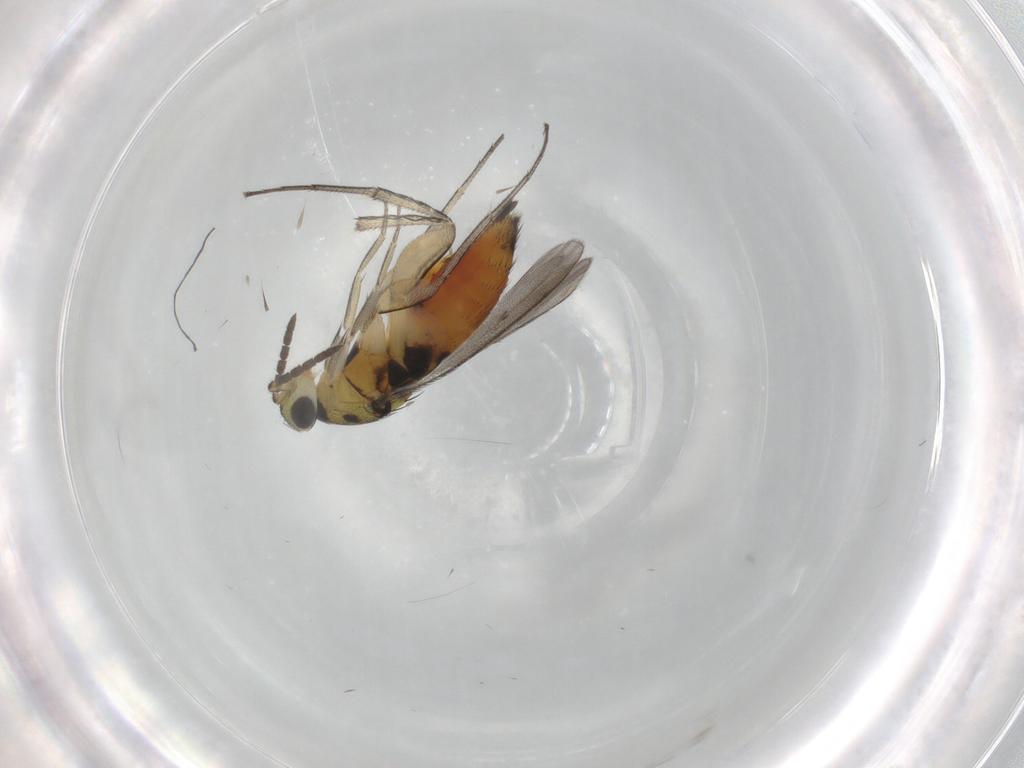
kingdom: Animalia
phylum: Arthropoda
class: Insecta
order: Hymenoptera
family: Eulophidae
